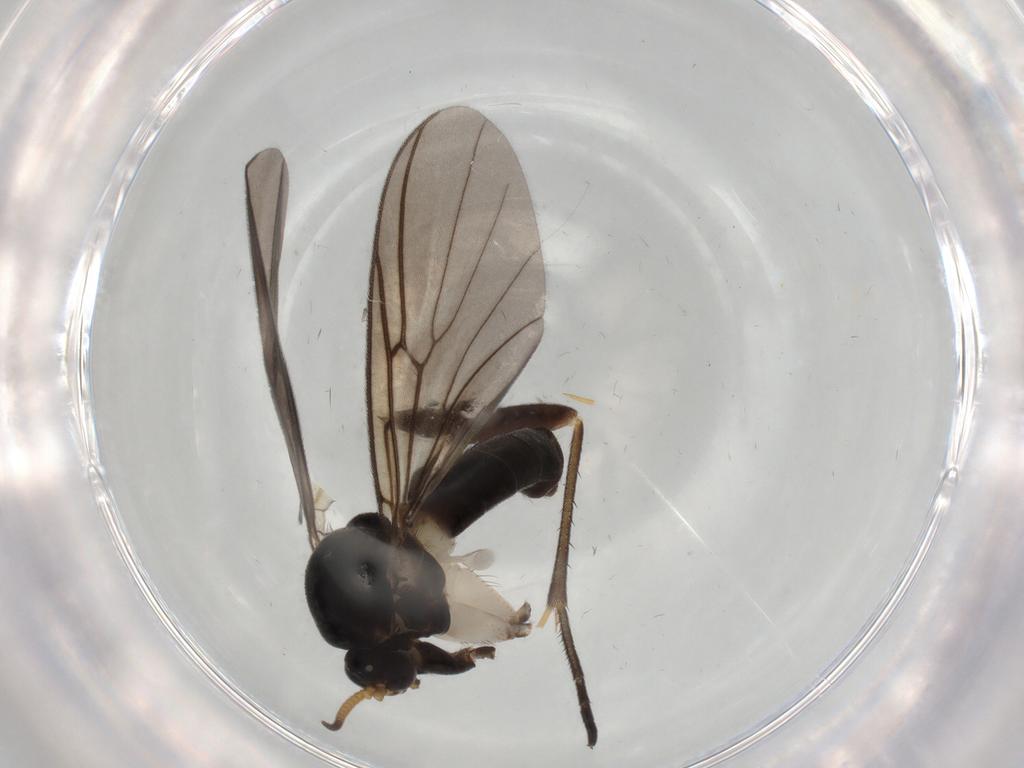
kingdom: Animalia
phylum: Arthropoda
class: Insecta
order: Diptera
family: Mycetophilidae
